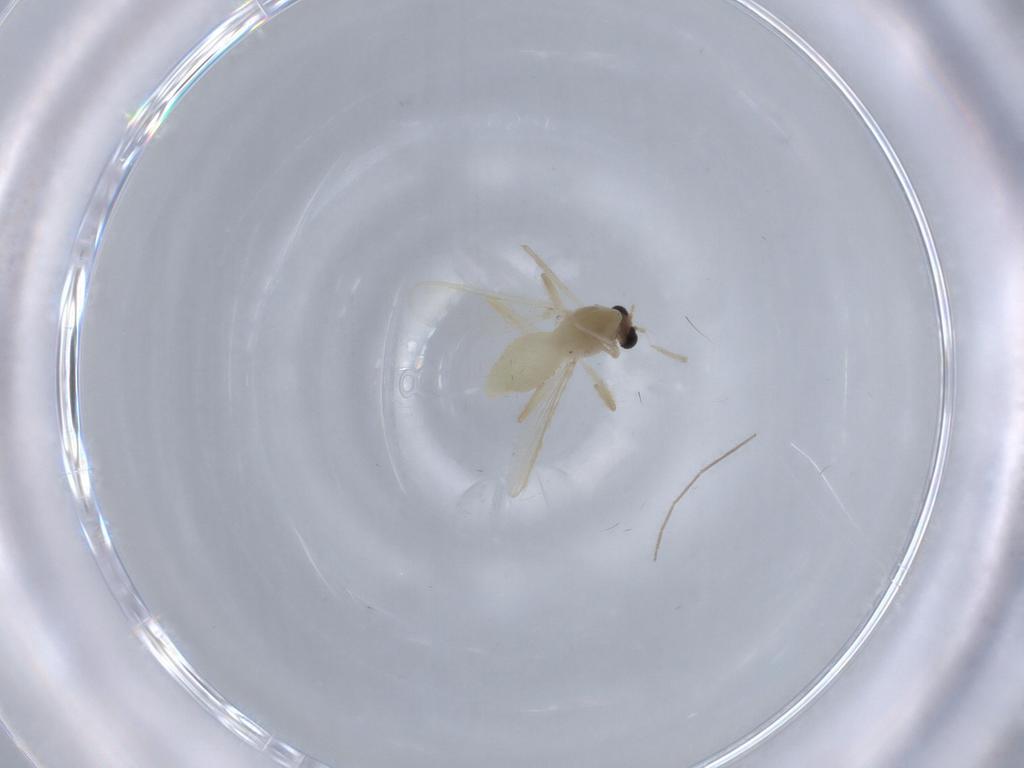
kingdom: Animalia
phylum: Arthropoda
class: Insecta
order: Diptera
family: Chironomidae
